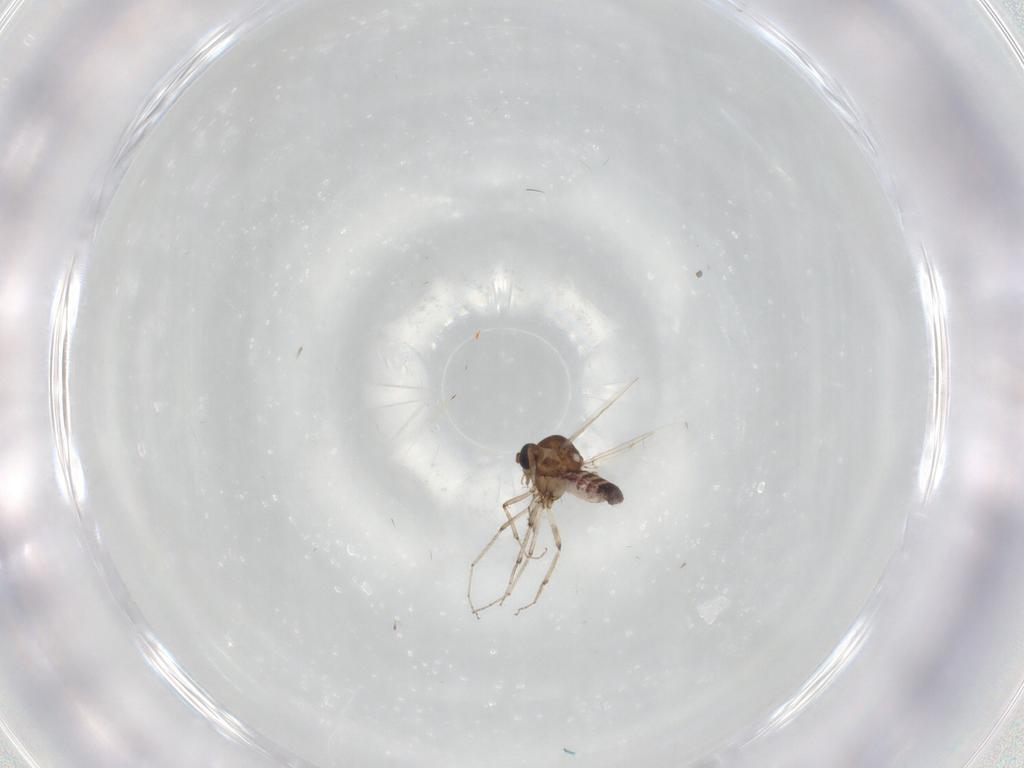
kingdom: Animalia
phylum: Arthropoda
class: Insecta
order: Diptera
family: Ceratopogonidae
